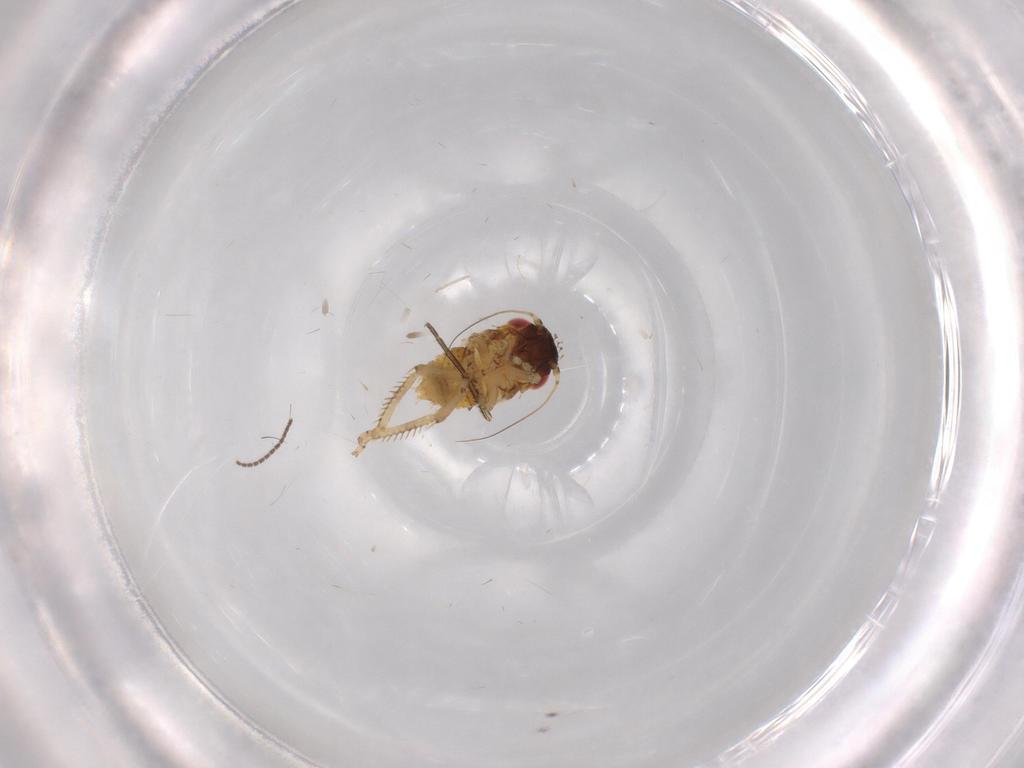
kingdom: Animalia
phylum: Arthropoda
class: Insecta
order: Hemiptera
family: Cicadellidae
